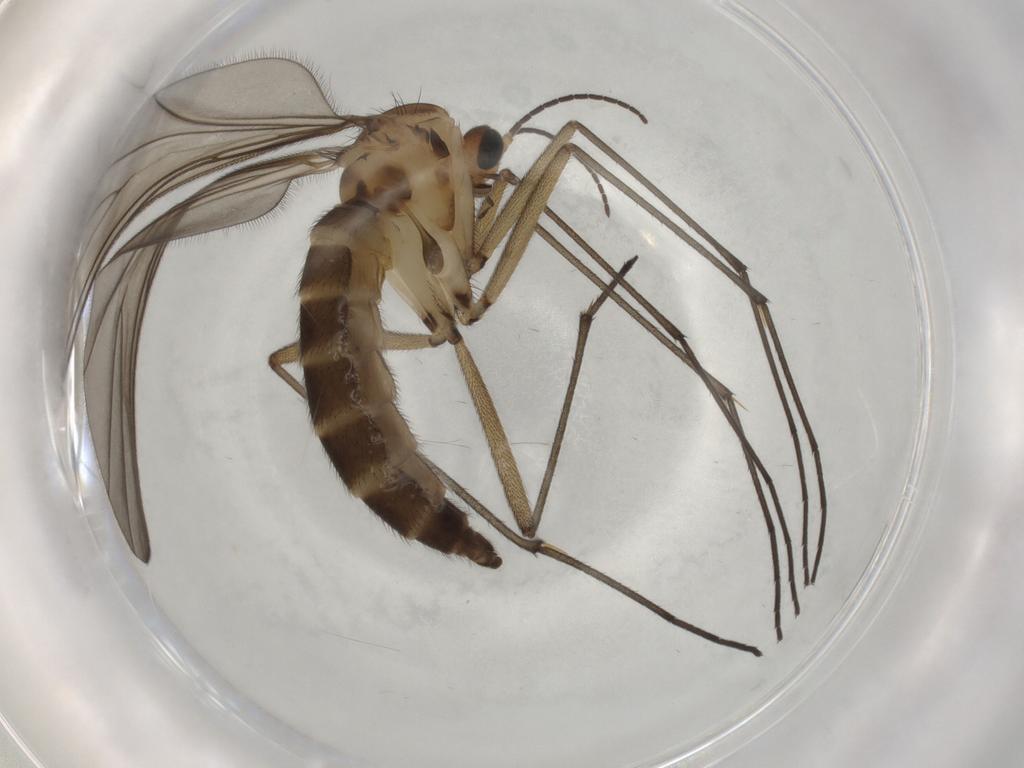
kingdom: Animalia
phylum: Arthropoda
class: Insecta
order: Diptera
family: Sciaridae
